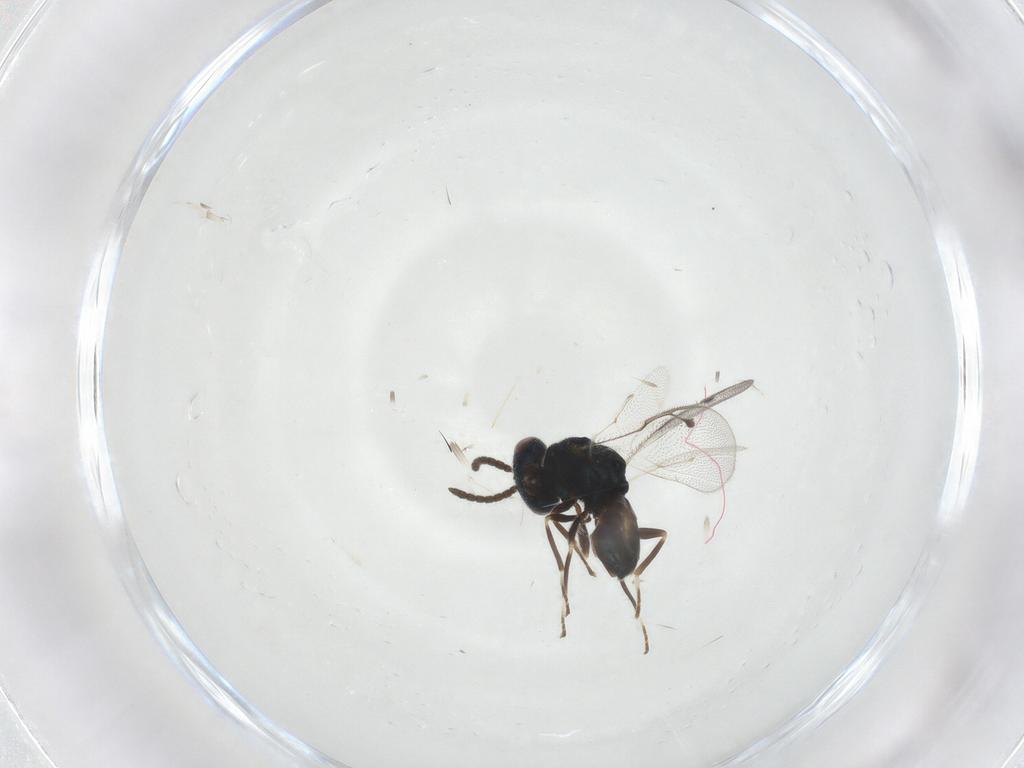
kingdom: Animalia
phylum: Arthropoda
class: Insecta
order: Hymenoptera
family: Pteromalidae
